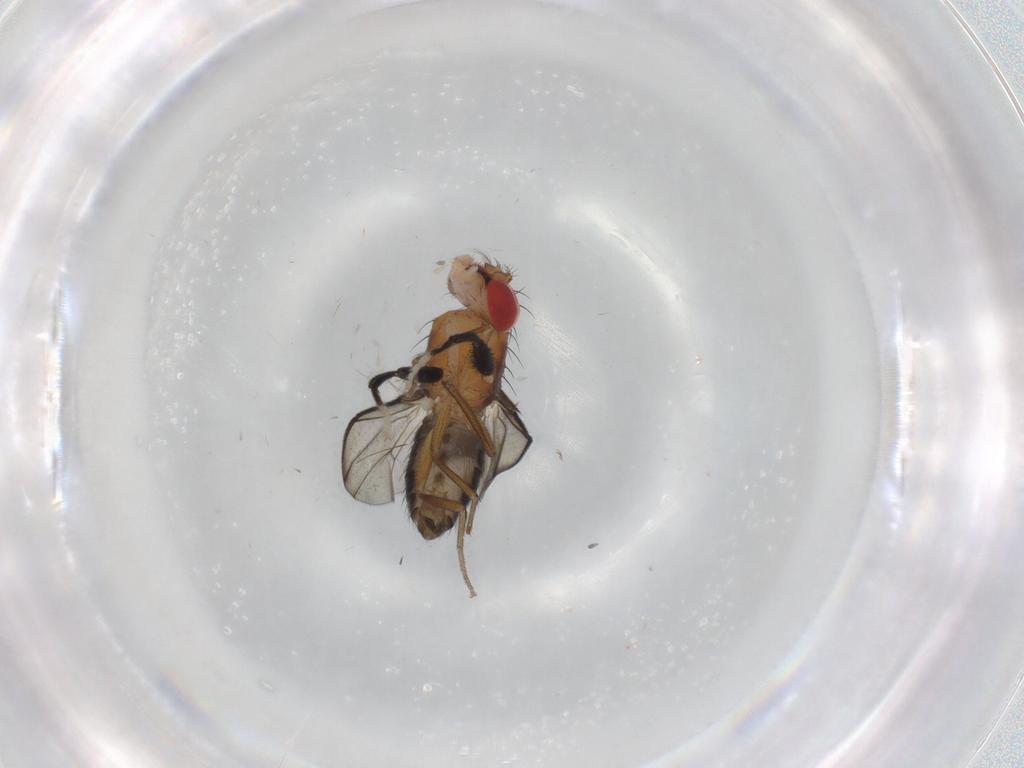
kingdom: Animalia
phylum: Arthropoda
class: Insecta
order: Diptera
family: Drosophilidae
